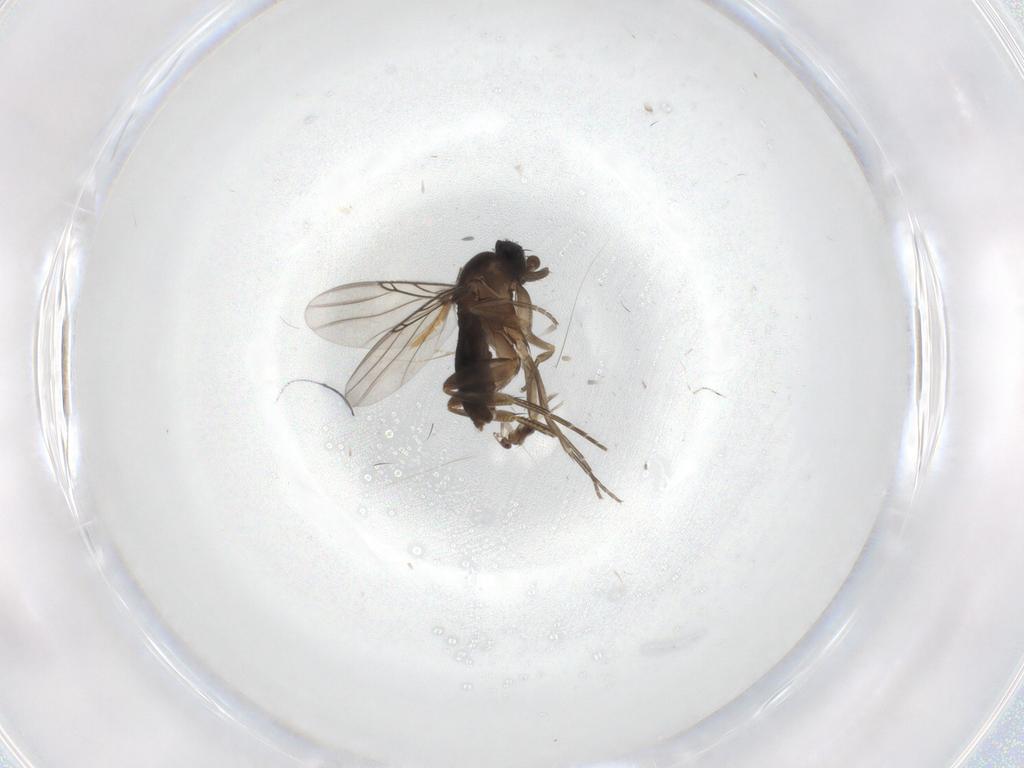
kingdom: Animalia
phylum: Arthropoda
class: Insecta
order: Diptera
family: Phoridae
